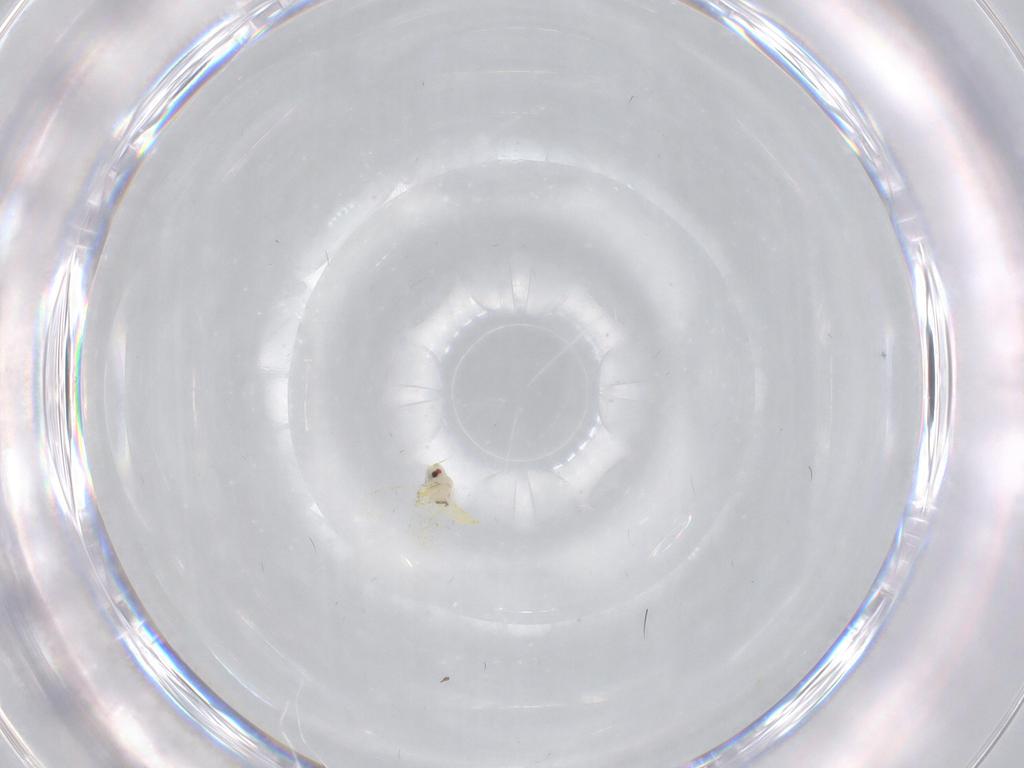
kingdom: Animalia
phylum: Arthropoda
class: Insecta
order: Hemiptera
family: Aleyrodidae
